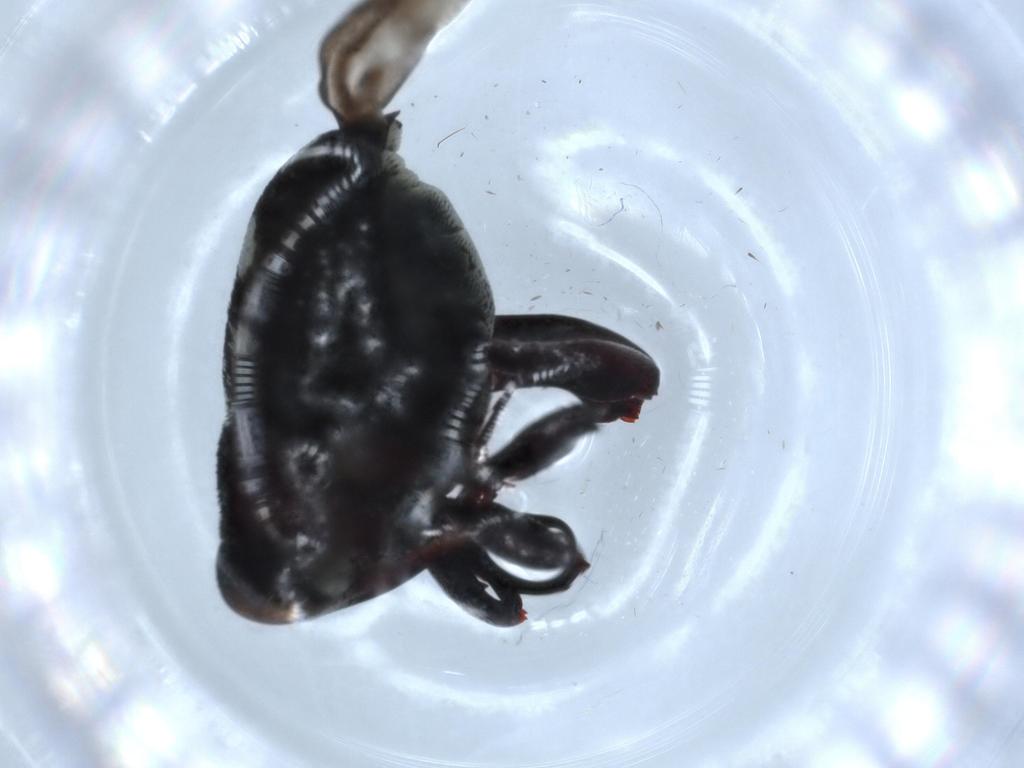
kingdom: Animalia
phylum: Arthropoda
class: Insecta
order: Coleoptera
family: Curculionidae
